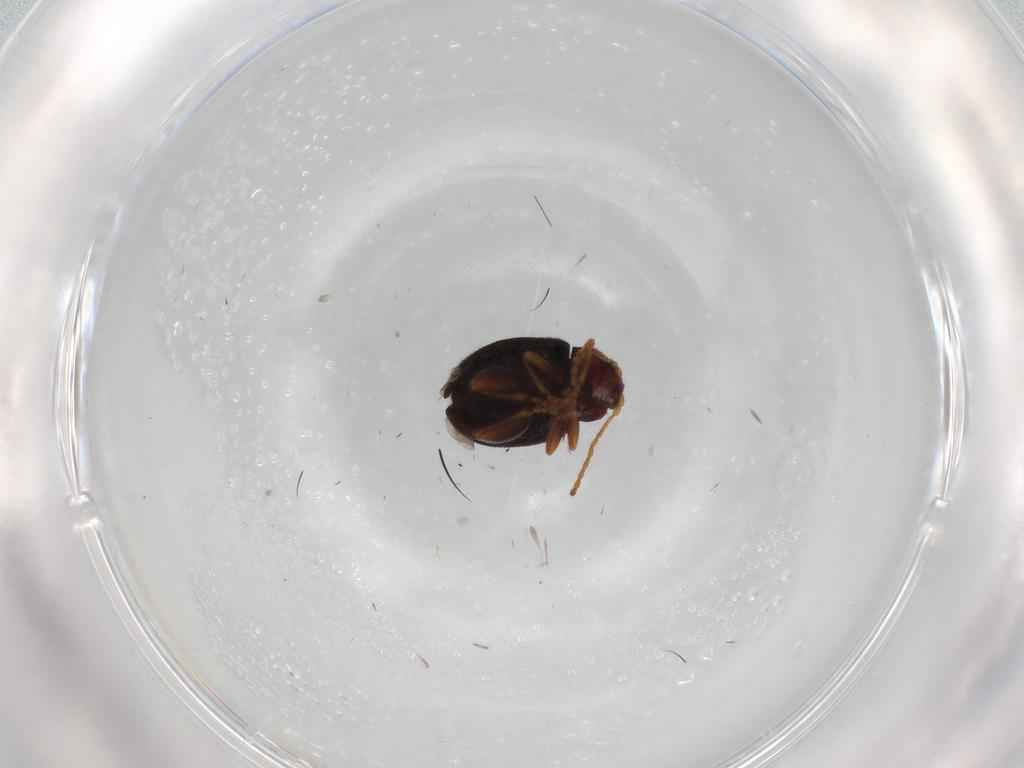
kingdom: Animalia
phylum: Arthropoda
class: Insecta
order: Coleoptera
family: Chrysomelidae
